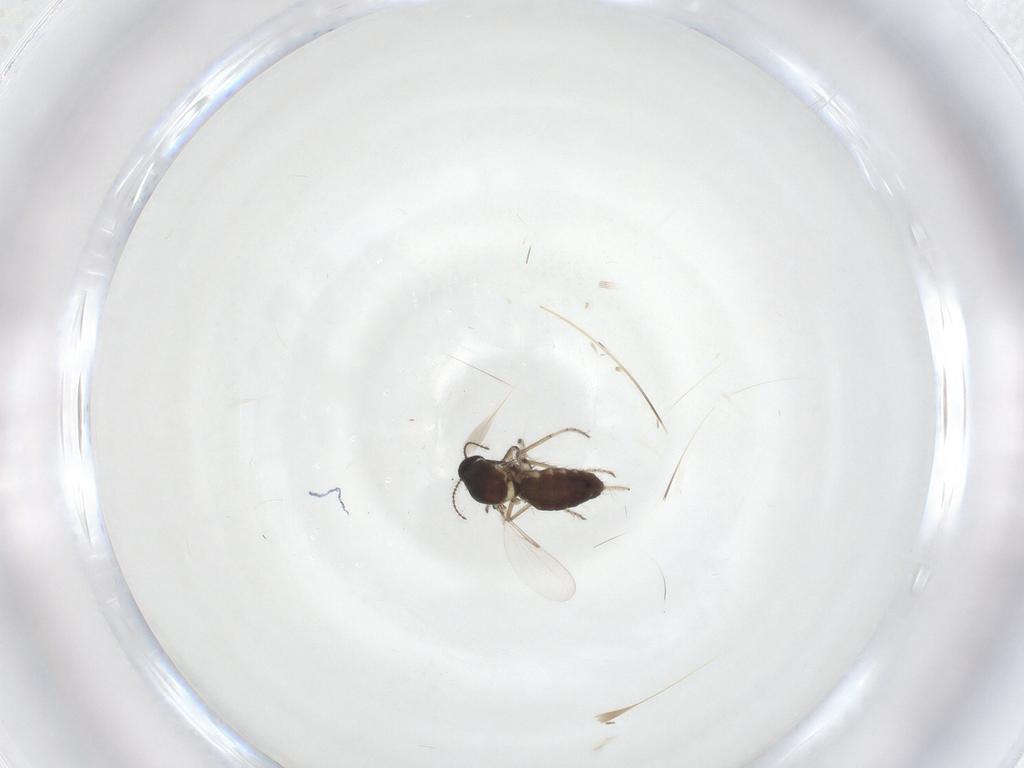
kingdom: Animalia
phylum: Arthropoda
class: Insecta
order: Diptera
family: Ceratopogonidae
